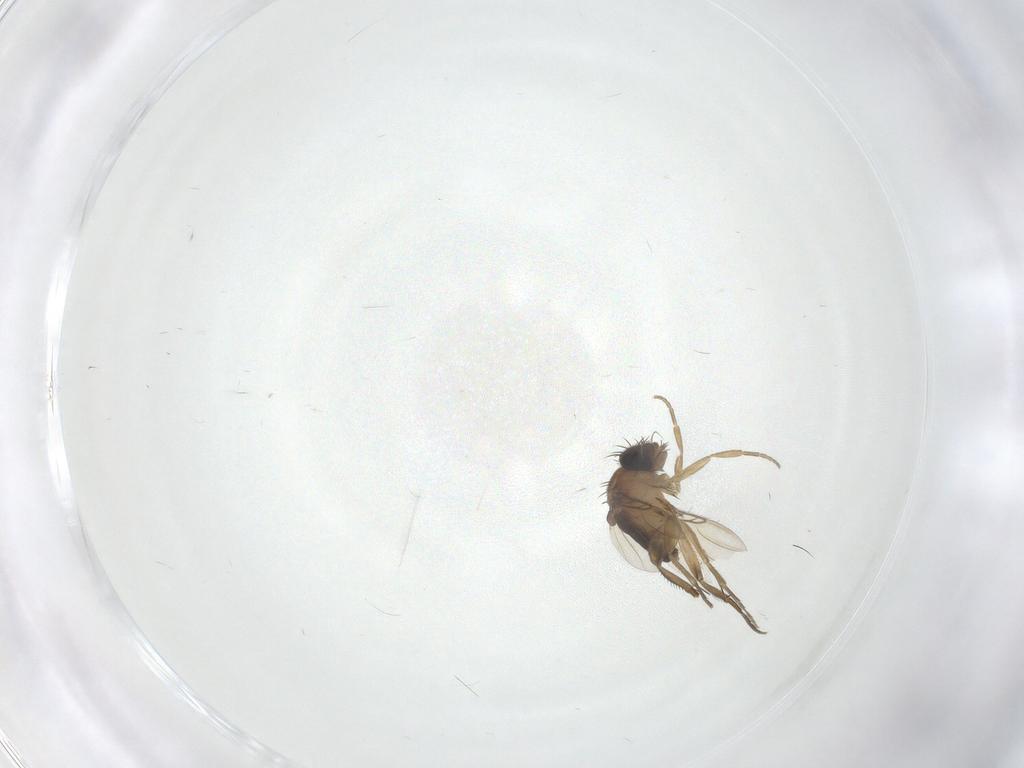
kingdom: Animalia
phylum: Arthropoda
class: Insecta
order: Diptera
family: Phoridae
